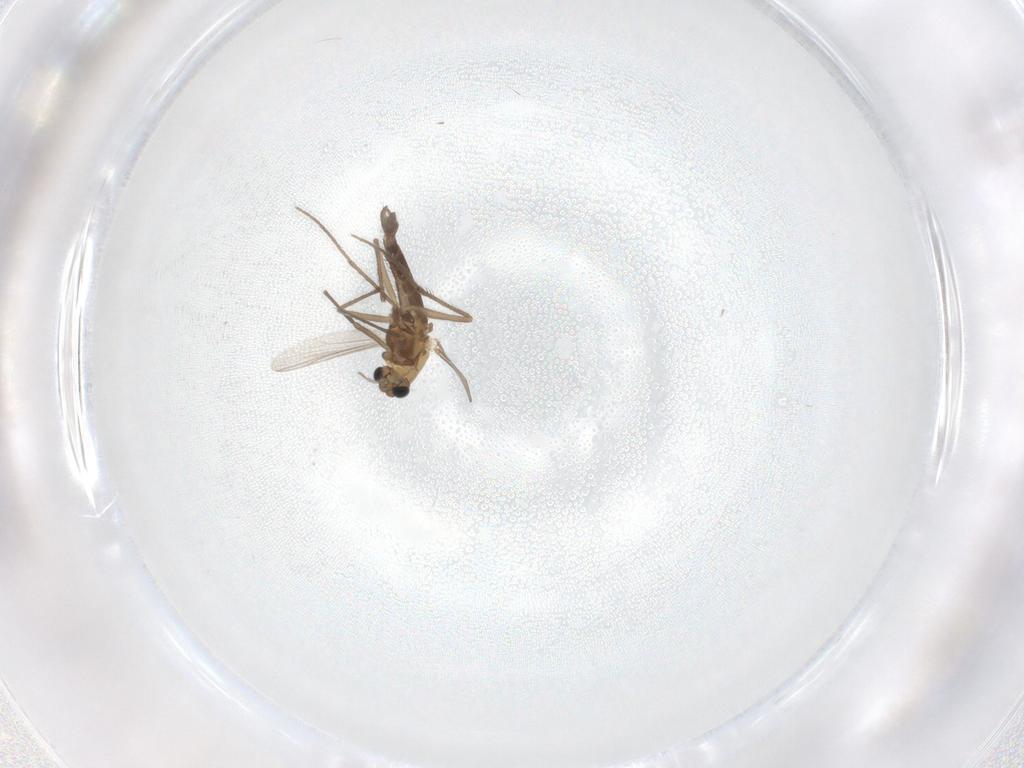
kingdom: Animalia
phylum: Arthropoda
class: Insecta
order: Diptera
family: Chironomidae
